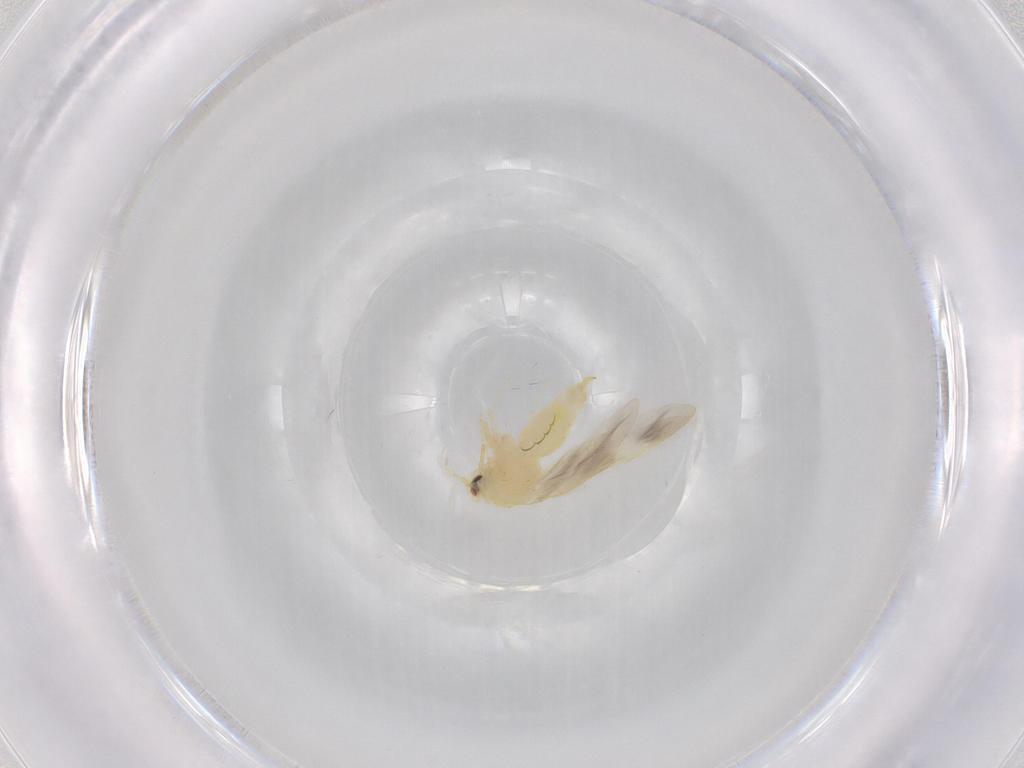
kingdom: Animalia
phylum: Arthropoda
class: Insecta
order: Hemiptera
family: Aleyrodidae
